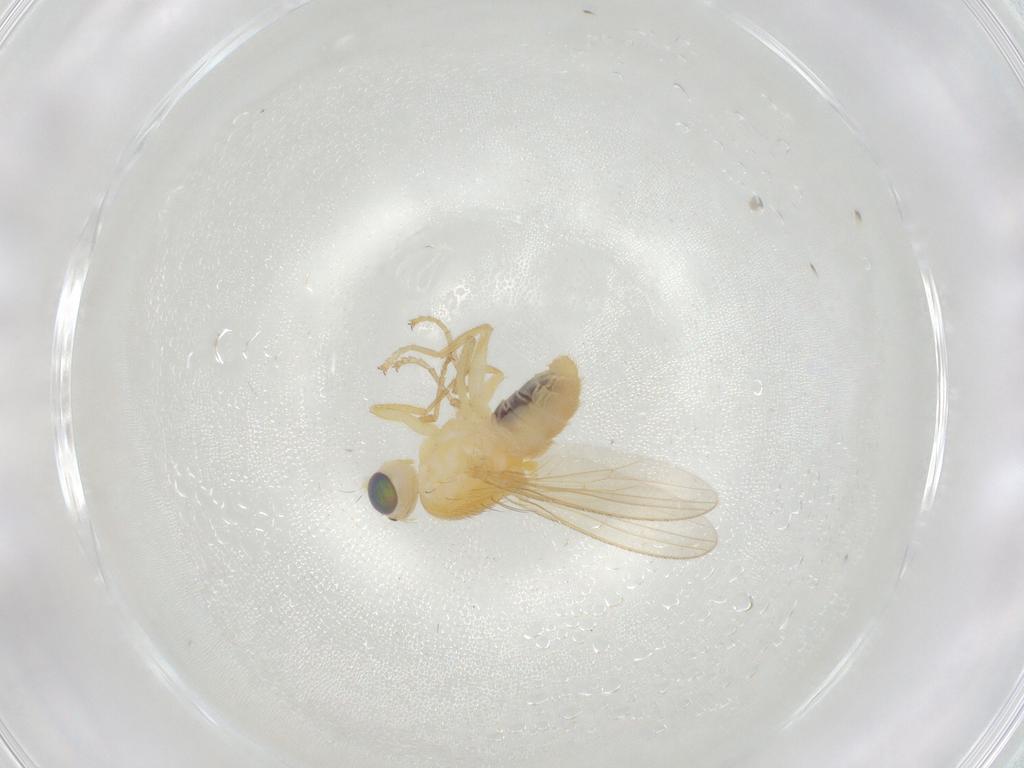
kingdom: Animalia
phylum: Arthropoda
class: Insecta
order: Diptera
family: Chyromyidae
